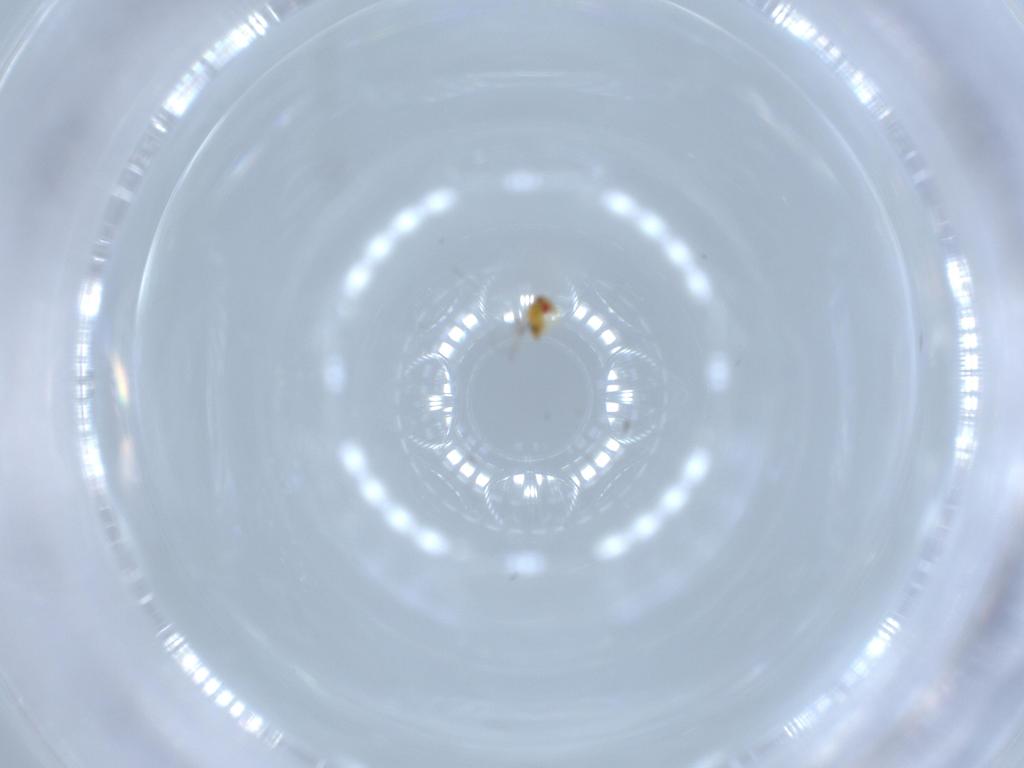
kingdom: Animalia
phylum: Arthropoda
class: Insecta
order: Hymenoptera
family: Trichogrammatidae
